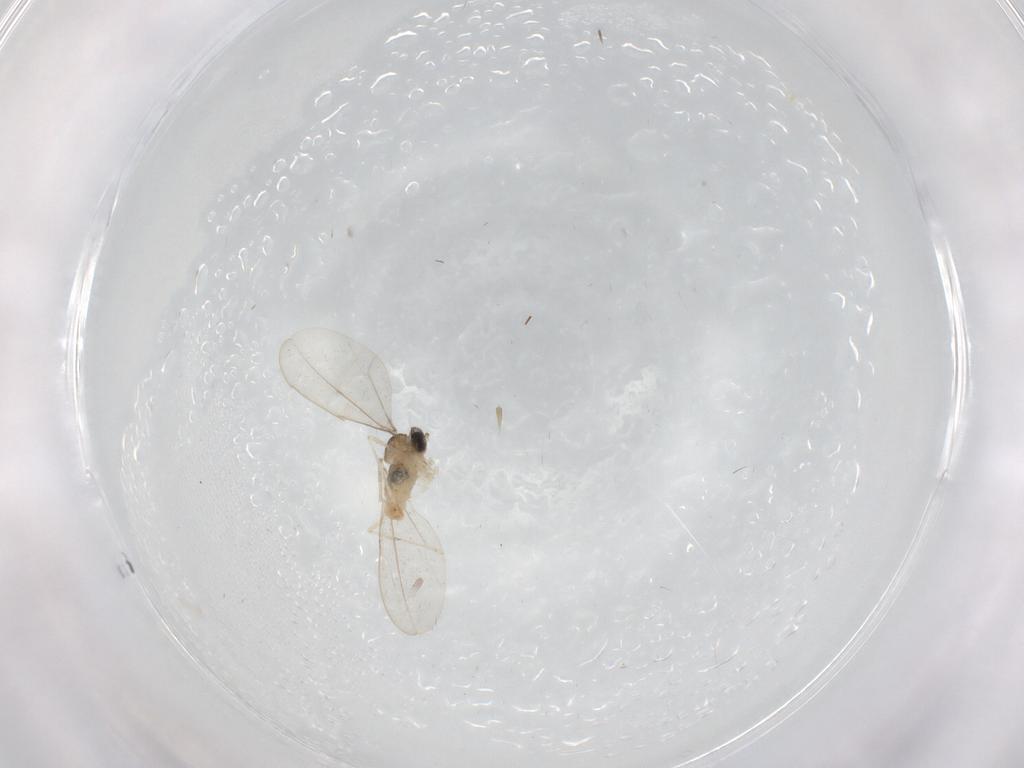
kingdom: Animalia
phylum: Arthropoda
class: Insecta
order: Diptera
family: Cecidomyiidae
